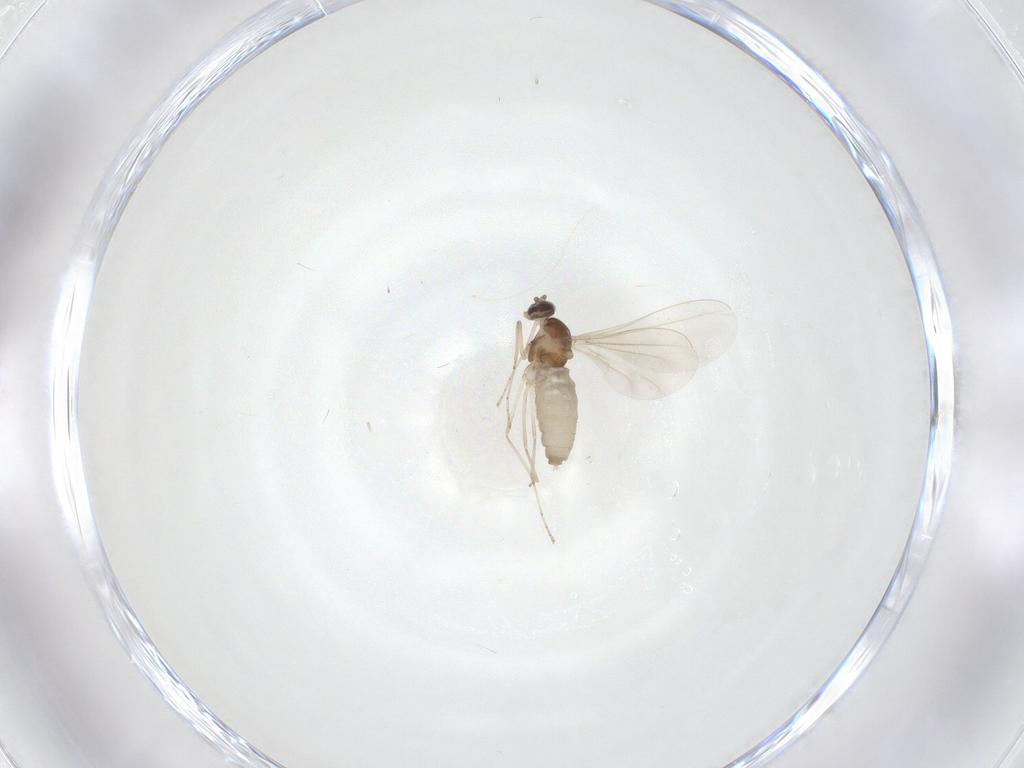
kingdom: Animalia
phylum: Arthropoda
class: Insecta
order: Diptera
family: Cecidomyiidae
